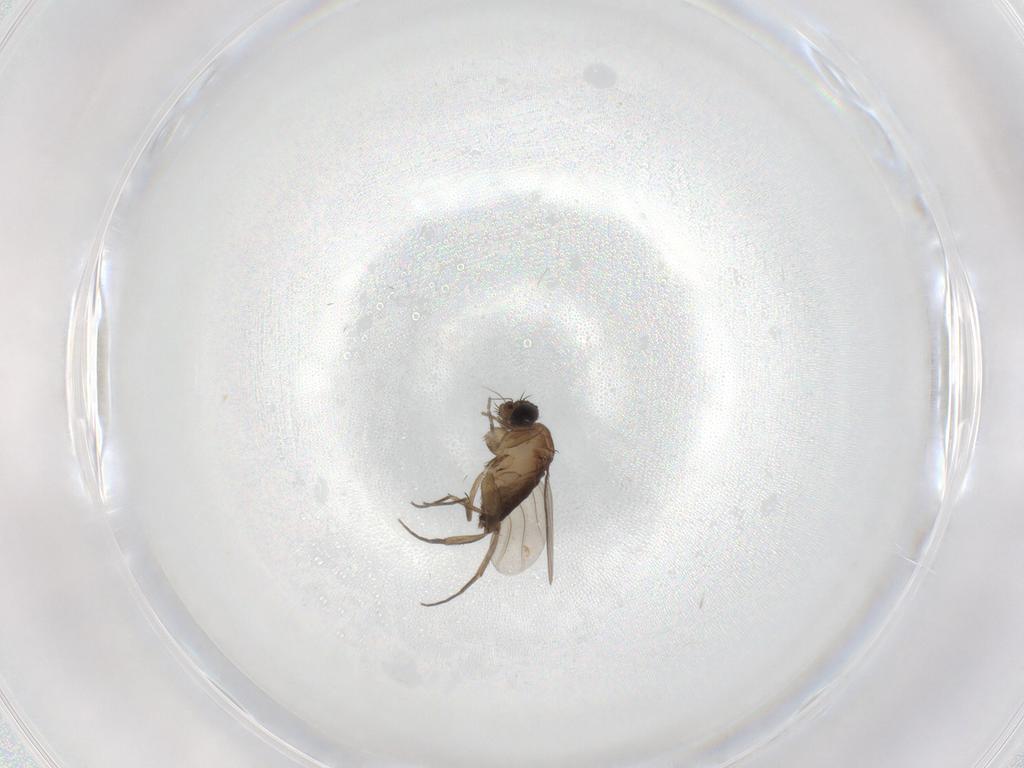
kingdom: Animalia
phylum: Arthropoda
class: Insecta
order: Diptera
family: Phoridae
